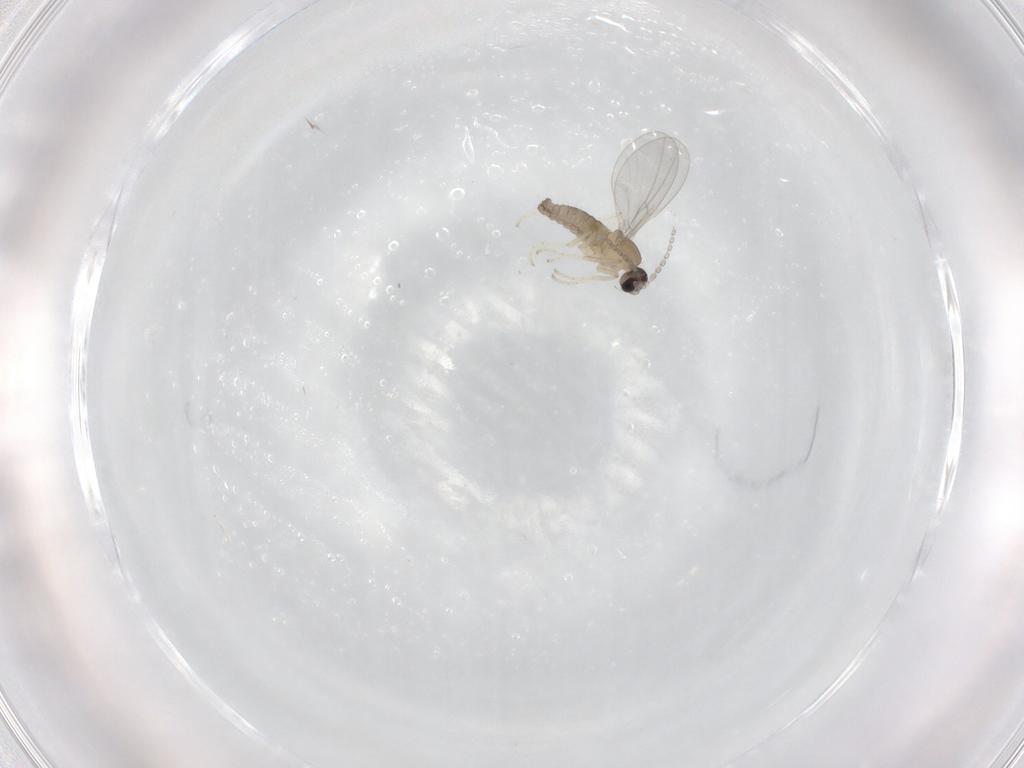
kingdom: Animalia
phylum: Arthropoda
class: Insecta
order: Diptera
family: Cecidomyiidae
